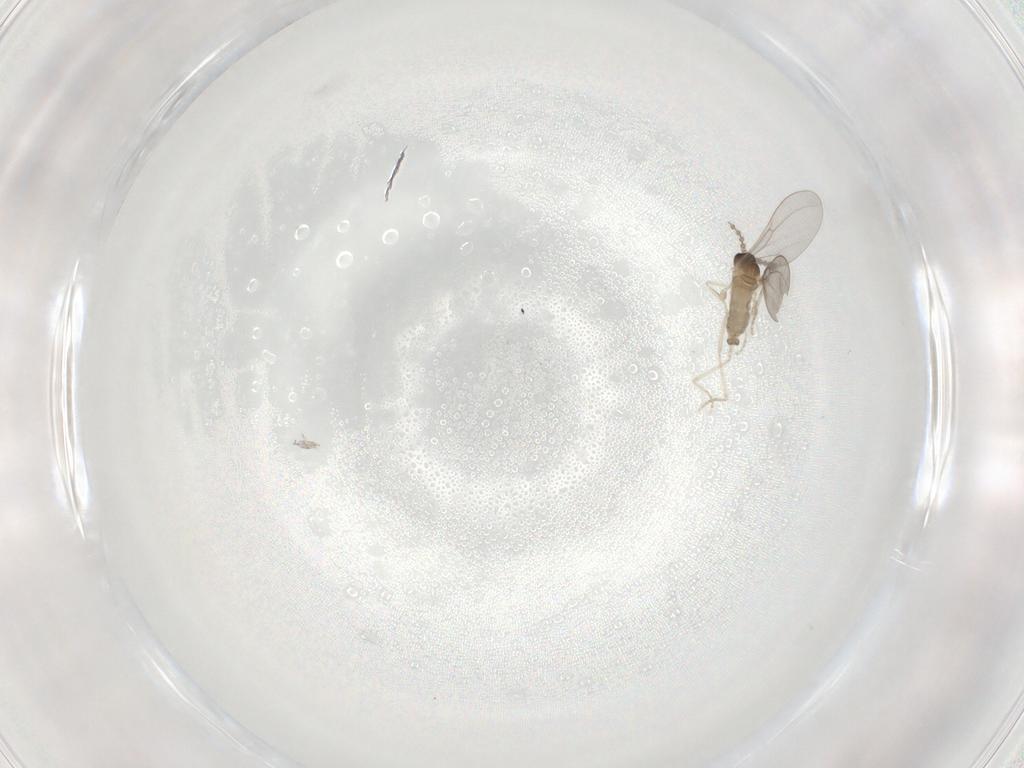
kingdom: Animalia
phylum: Arthropoda
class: Insecta
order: Diptera
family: Cecidomyiidae
